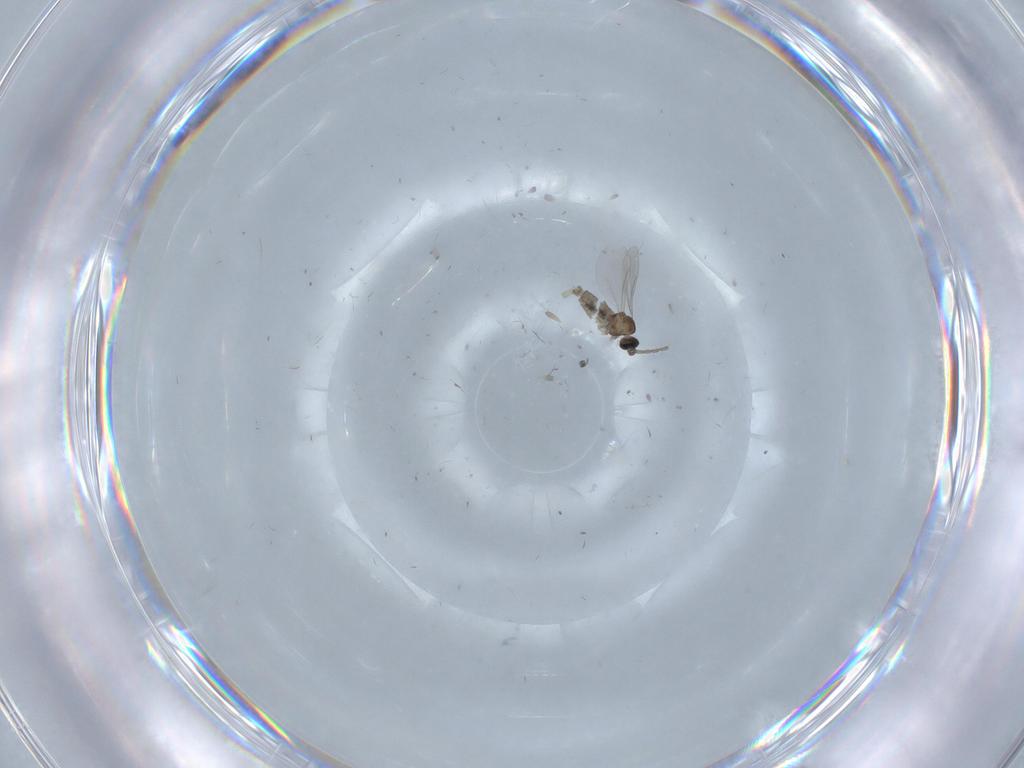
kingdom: Animalia
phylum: Arthropoda
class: Insecta
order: Diptera
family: Cecidomyiidae
